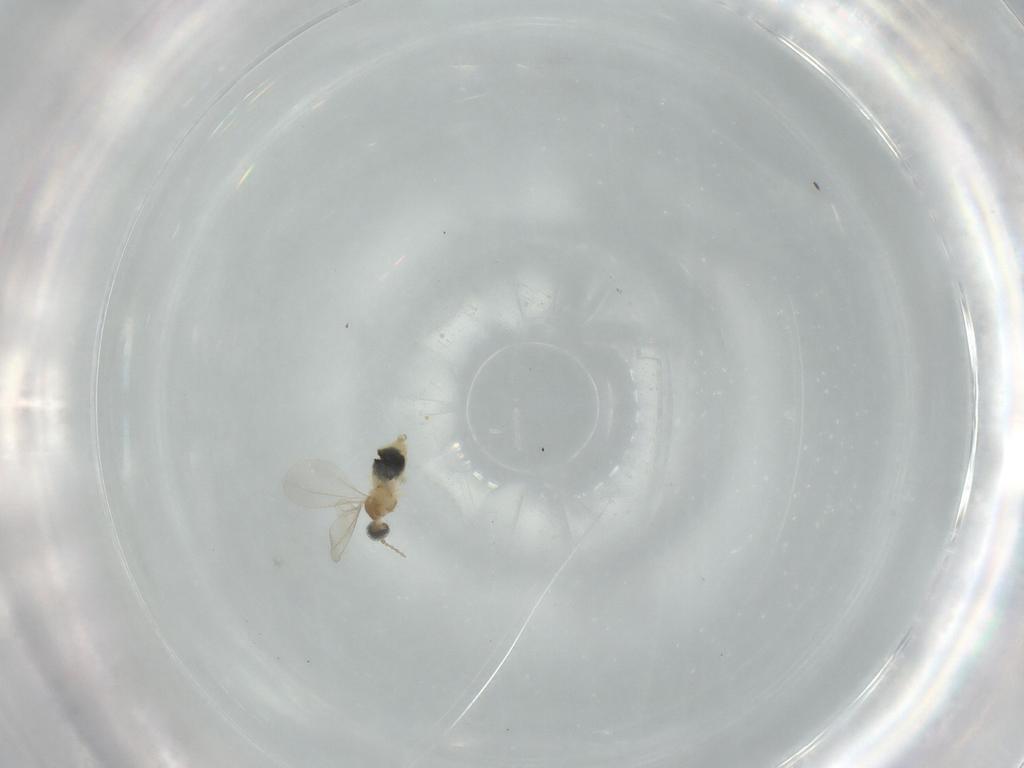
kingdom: Animalia
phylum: Arthropoda
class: Insecta
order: Diptera
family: Cecidomyiidae
